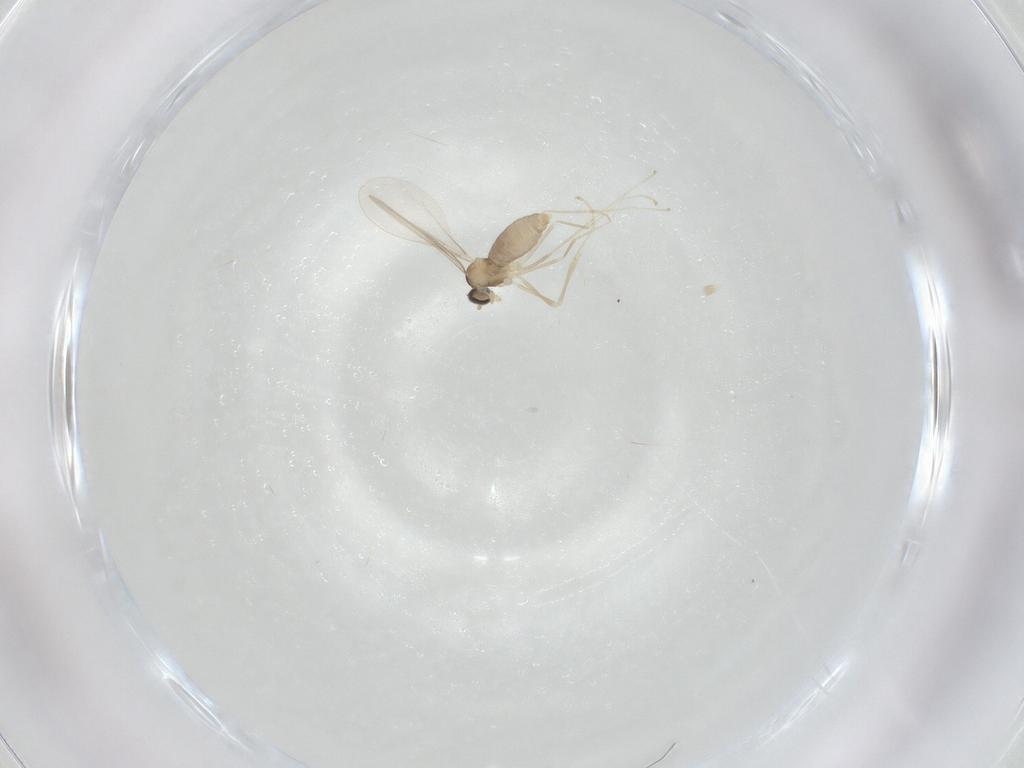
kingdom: Animalia
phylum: Arthropoda
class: Insecta
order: Diptera
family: Cecidomyiidae
